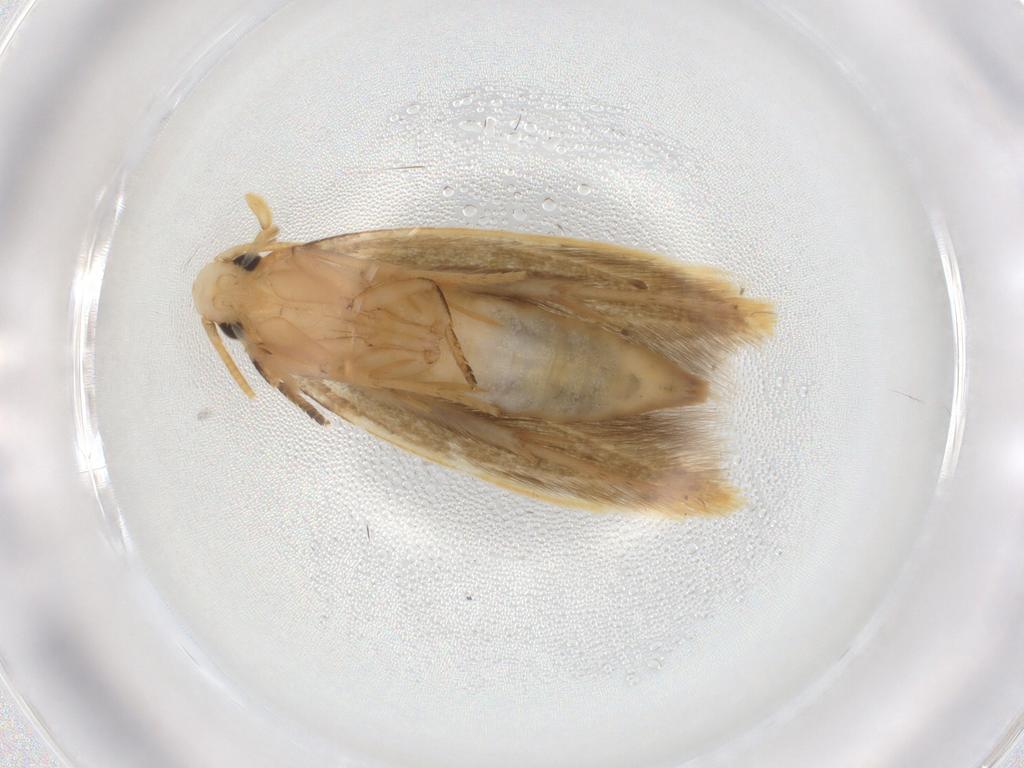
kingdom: Animalia
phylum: Arthropoda
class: Insecta
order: Lepidoptera
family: Tineidae
